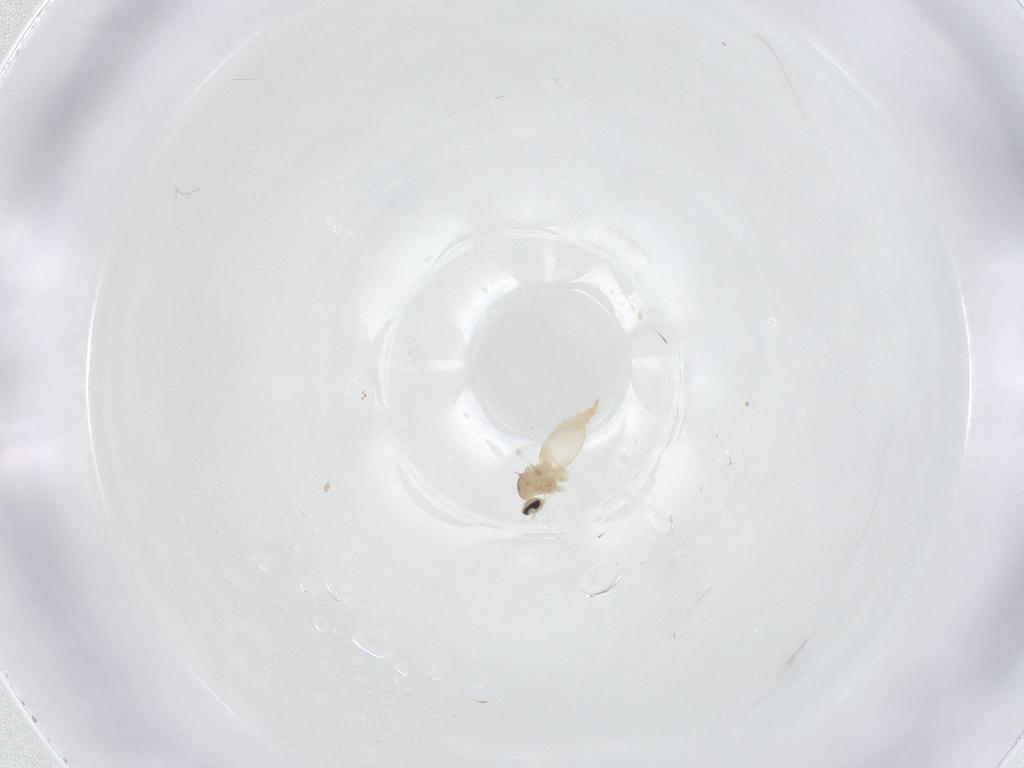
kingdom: Animalia
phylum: Arthropoda
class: Insecta
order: Diptera
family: Cecidomyiidae
